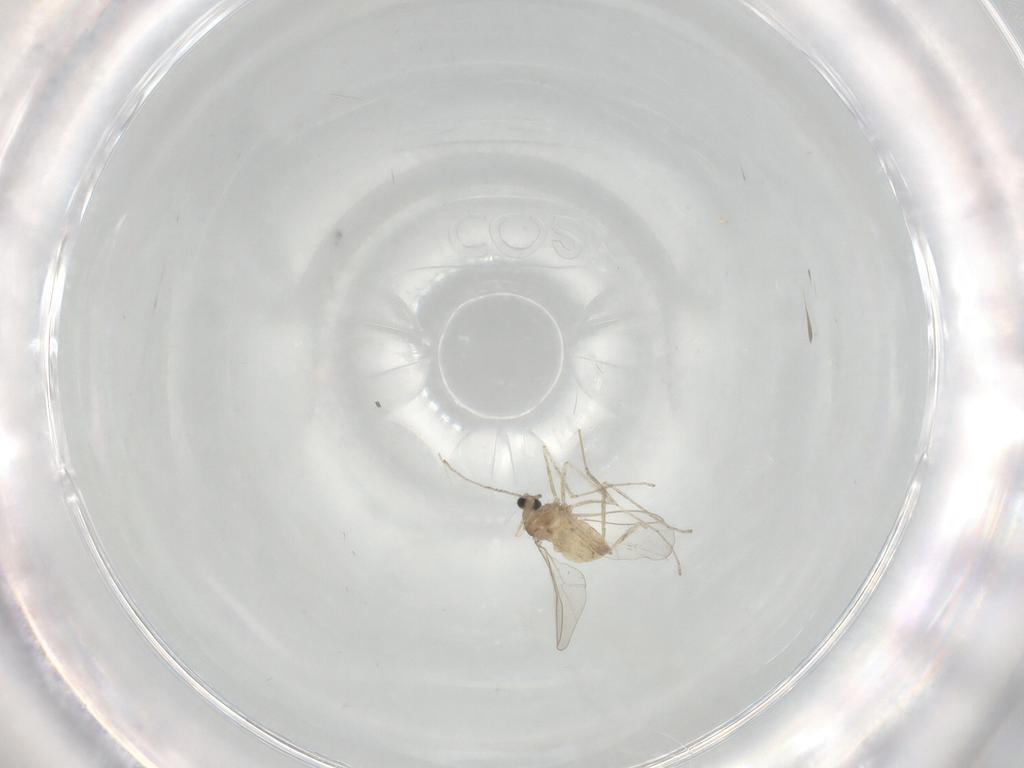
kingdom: Animalia
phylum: Arthropoda
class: Insecta
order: Diptera
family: Cecidomyiidae
